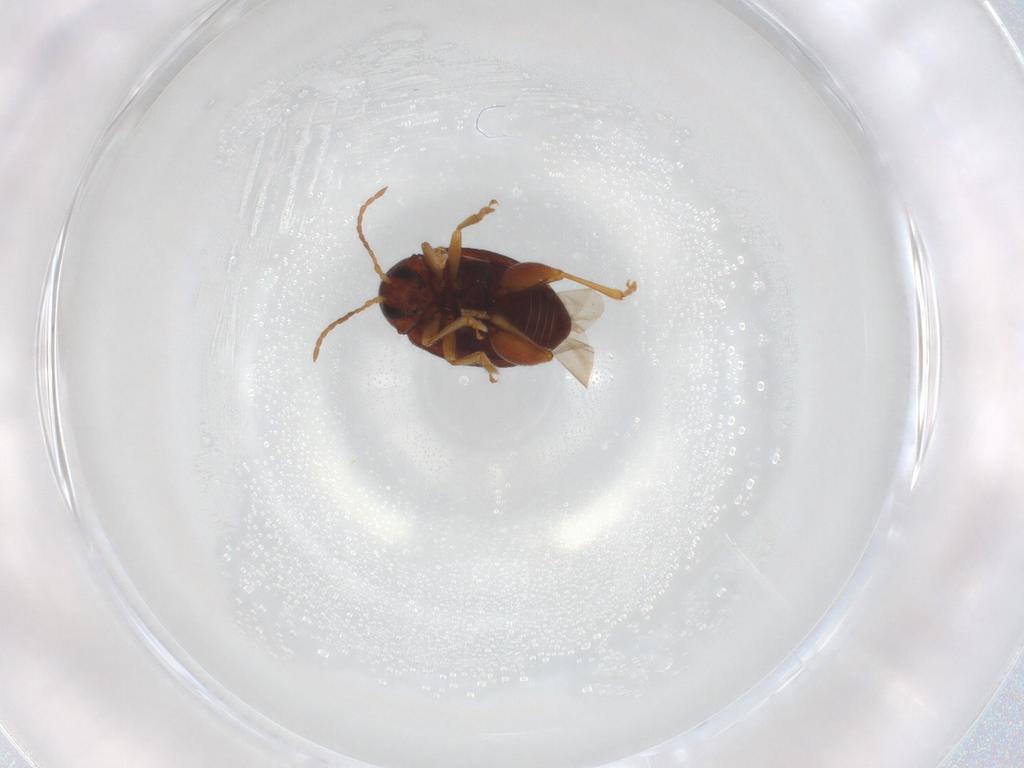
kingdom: Animalia
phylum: Arthropoda
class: Insecta
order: Coleoptera
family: Chrysomelidae
